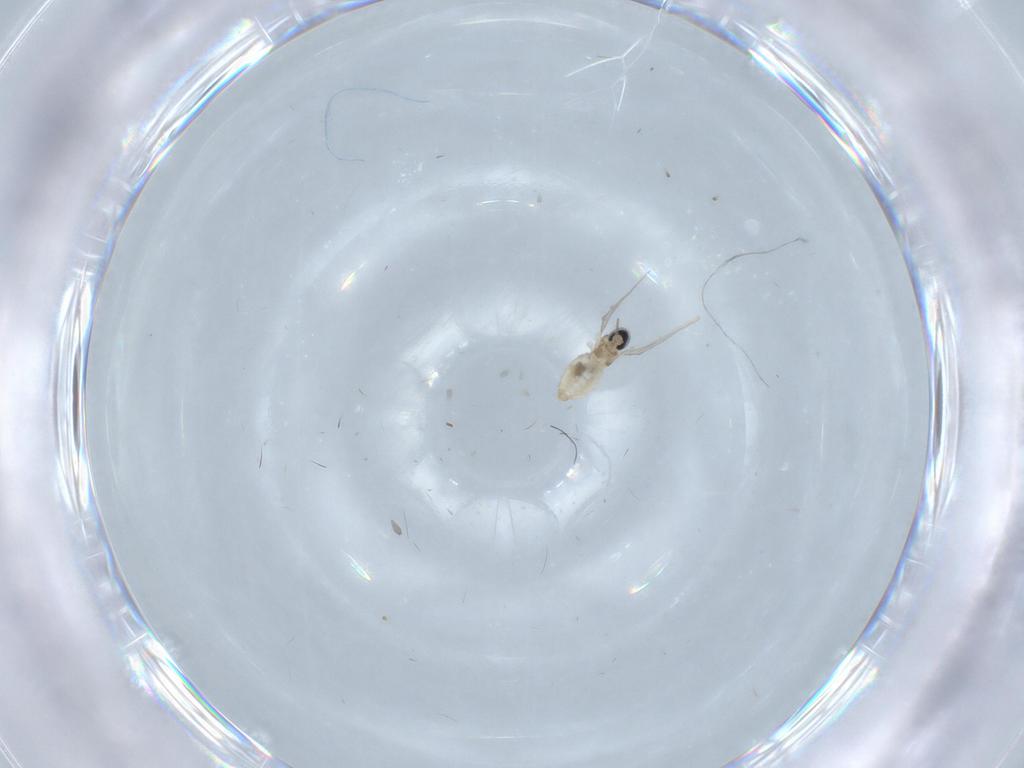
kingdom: Animalia
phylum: Arthropoda
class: Insecta
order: Diptera
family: Cecidomyiidae
